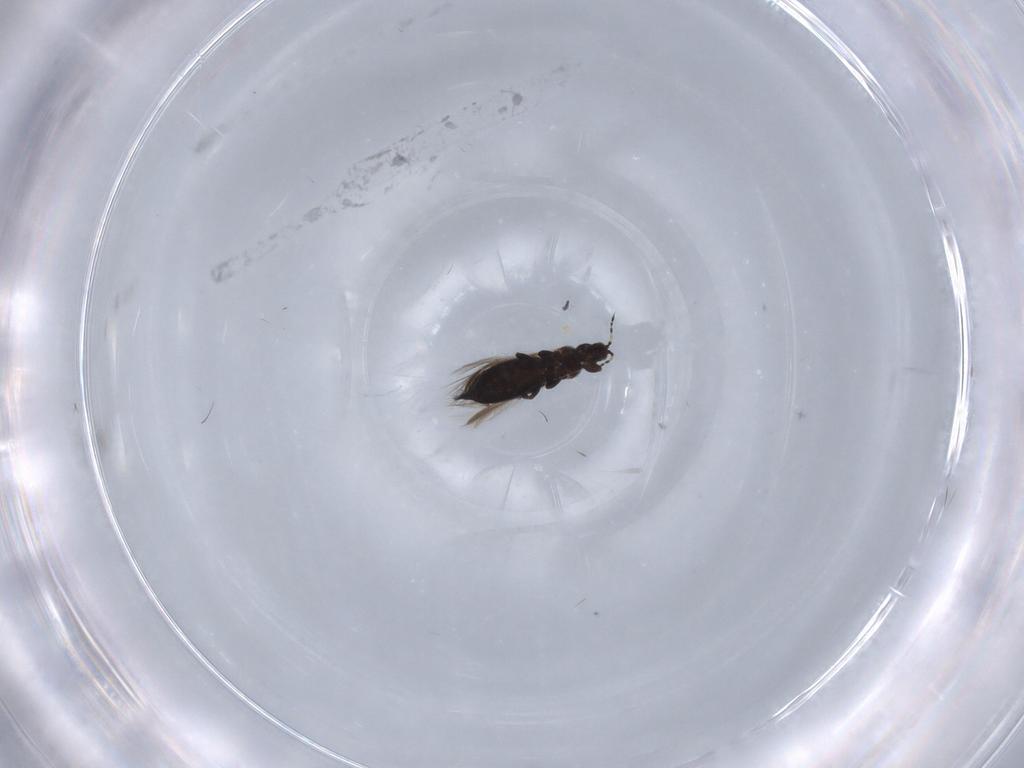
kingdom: Animalia
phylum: Arthropoda
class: Insecta
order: Thysanoptera
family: Thripidae
